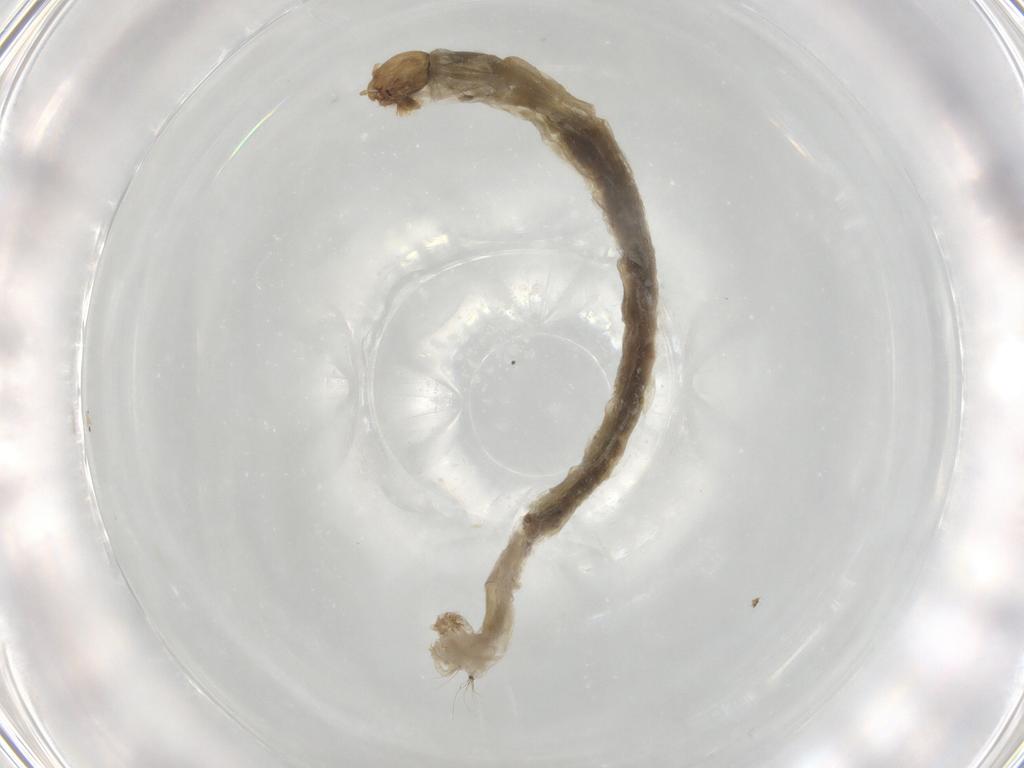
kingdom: Animalia
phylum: Arthropoda
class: Insecta
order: Diptera
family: Chironomidae
